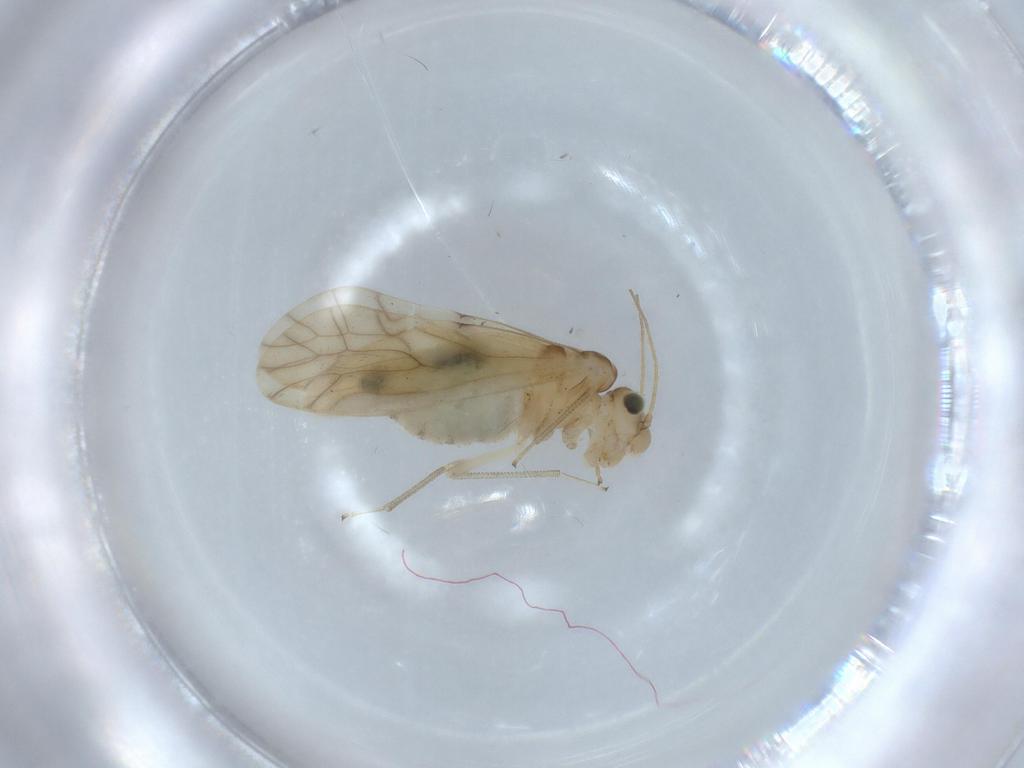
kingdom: Animalia
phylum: Arthropoda
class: Insecta
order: Psocodea
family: Caeciliusidae
